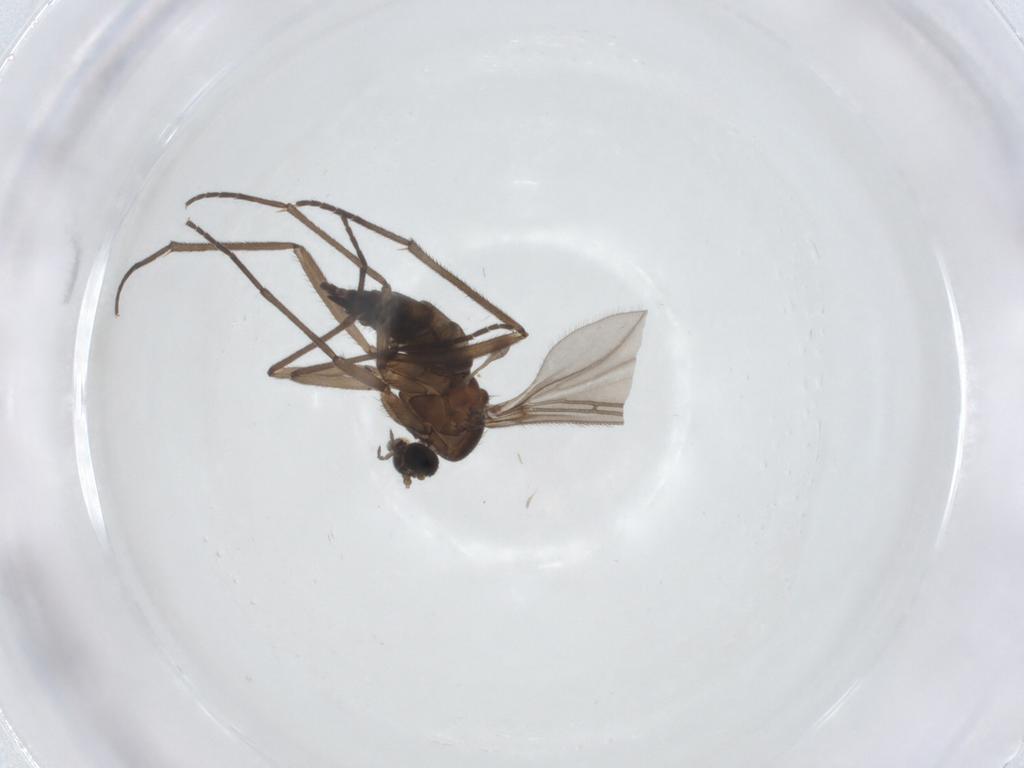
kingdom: Animalia
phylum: Arthropoda
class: Insecta
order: Diptera
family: Sciaridae
